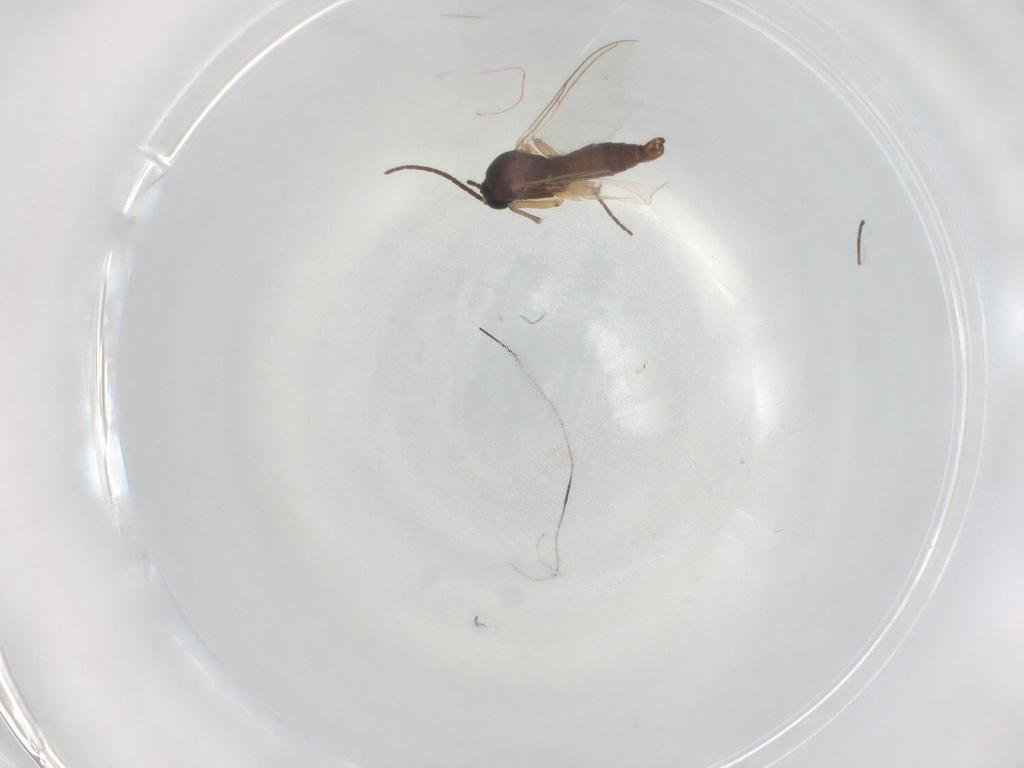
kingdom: Animalia
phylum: Arthropoda
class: Insecta
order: Diptera
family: Sciaridae
